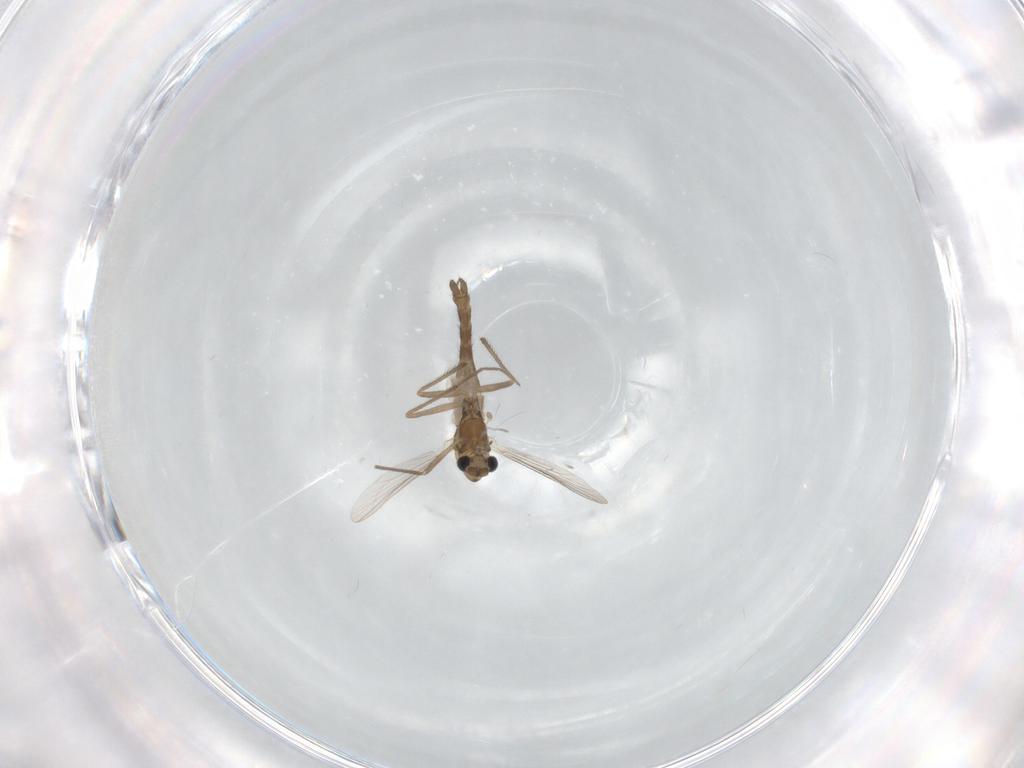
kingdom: Animalia
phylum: Arthropoda
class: Insecta
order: Diptera
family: Chironomidae
